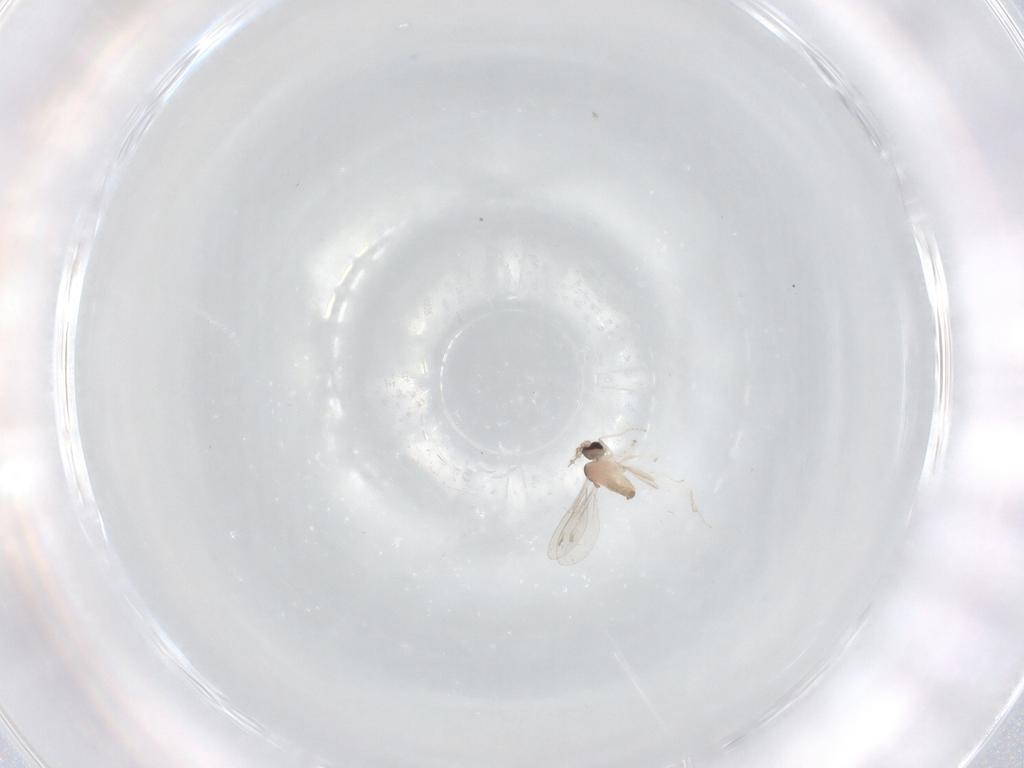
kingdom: Animalia
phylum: Arthropoda
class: Insecta
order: Diptera
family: Cecidomyiidae
